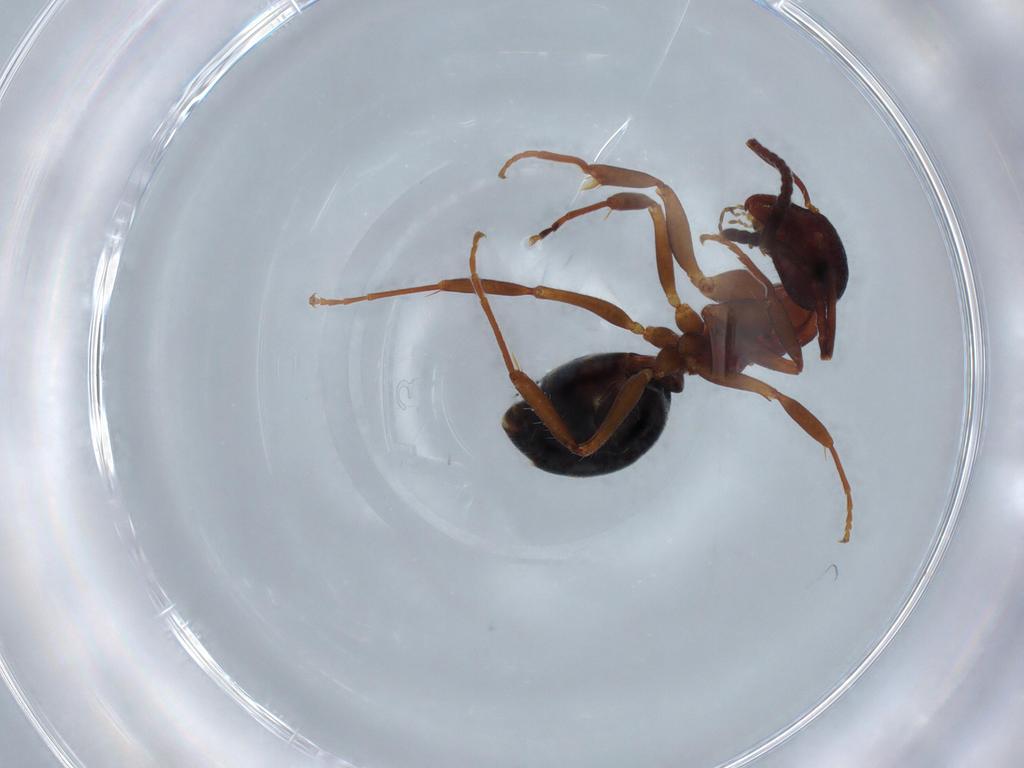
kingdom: Animalia
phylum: Arthropoda
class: Insecta
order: Hymenoptera
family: Formicidae
